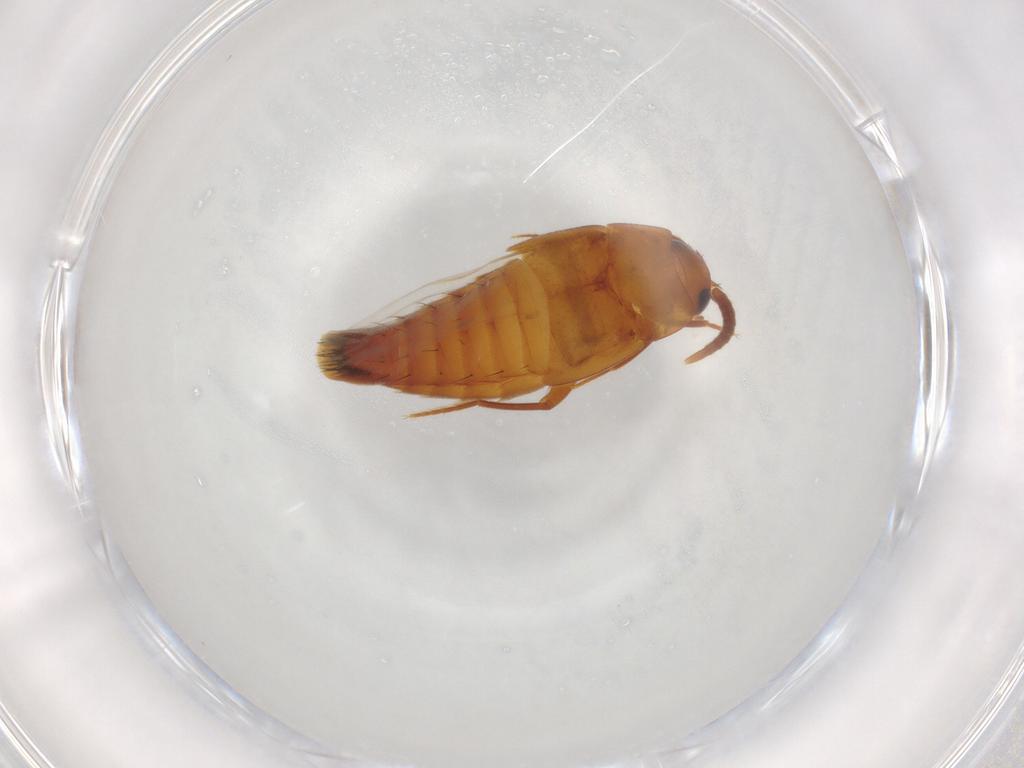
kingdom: Animalia
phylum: Arthropoda
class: Insecta
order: Coleoptera
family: Staphylinidae
